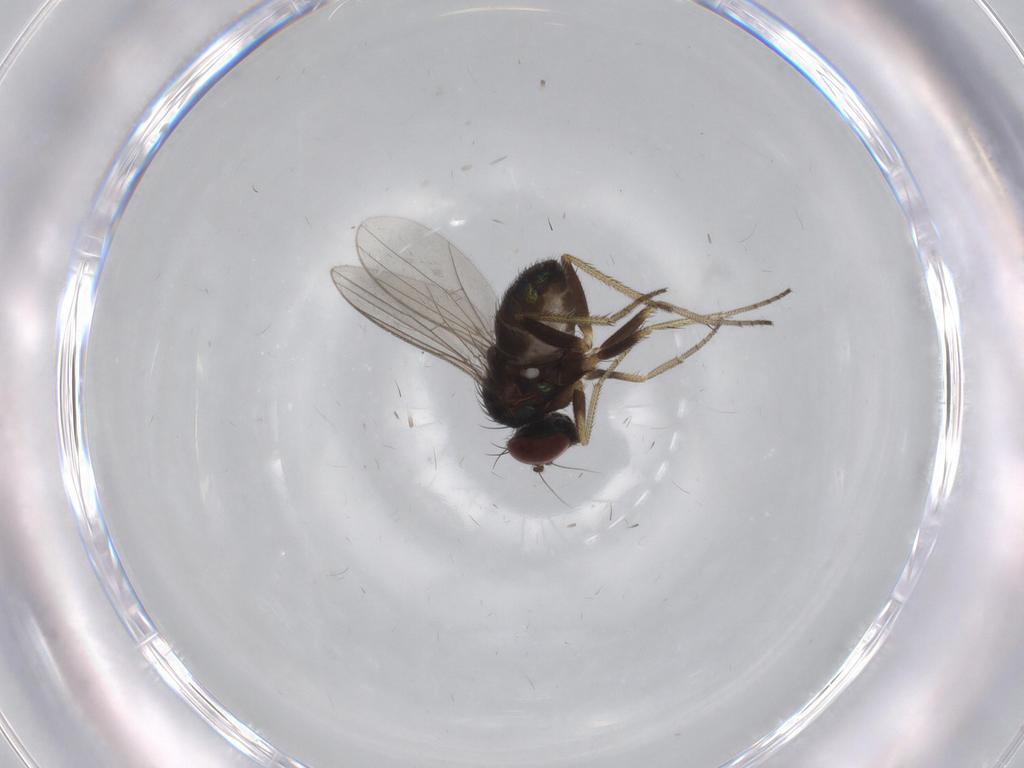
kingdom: Animalia
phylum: Arthropoda
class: Insecta
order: Diptera
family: Dolichopodidae
